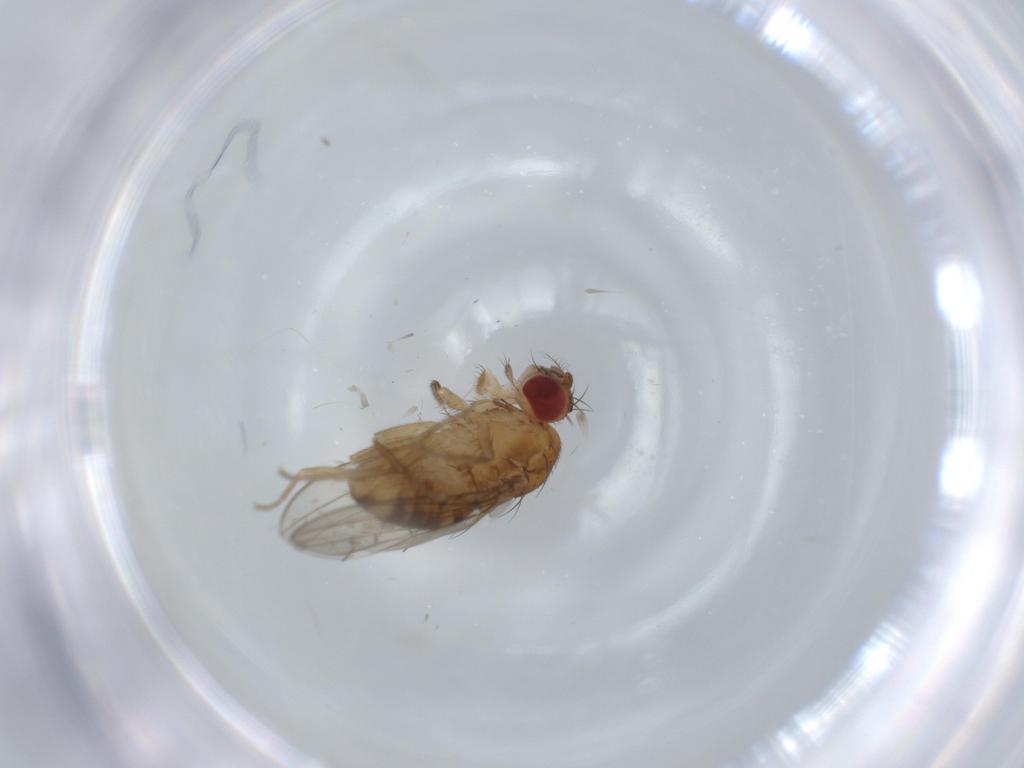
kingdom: Animalia
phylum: Arthropoda
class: Insecta
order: Diptera
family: Drosophilidae
